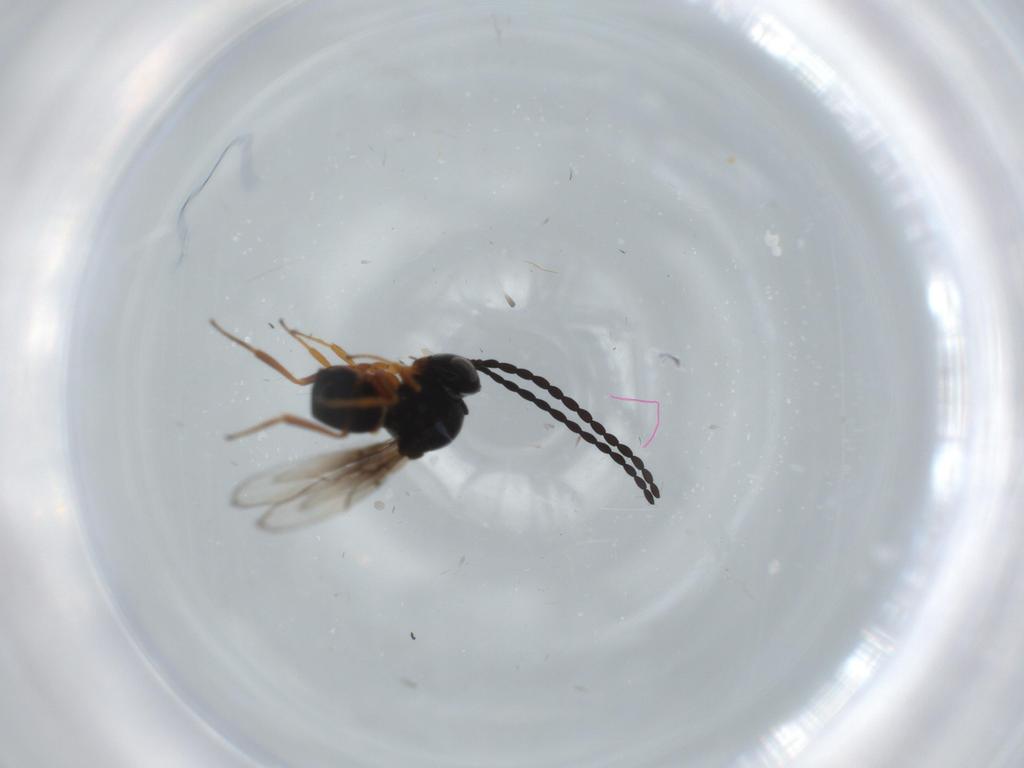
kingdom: Animalia
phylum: Arthropoda
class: Insecta
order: Hymenoptera
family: Figitidae
